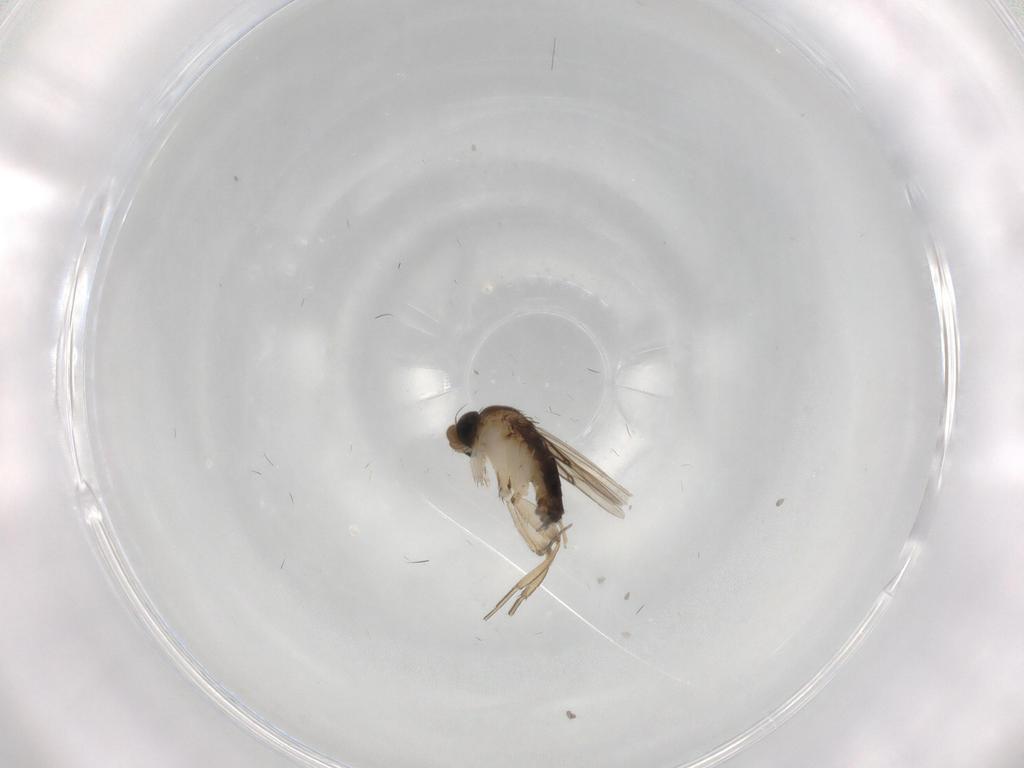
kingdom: Animalia
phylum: Arthropoda
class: Insecta
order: Diptera
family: Phoridae
